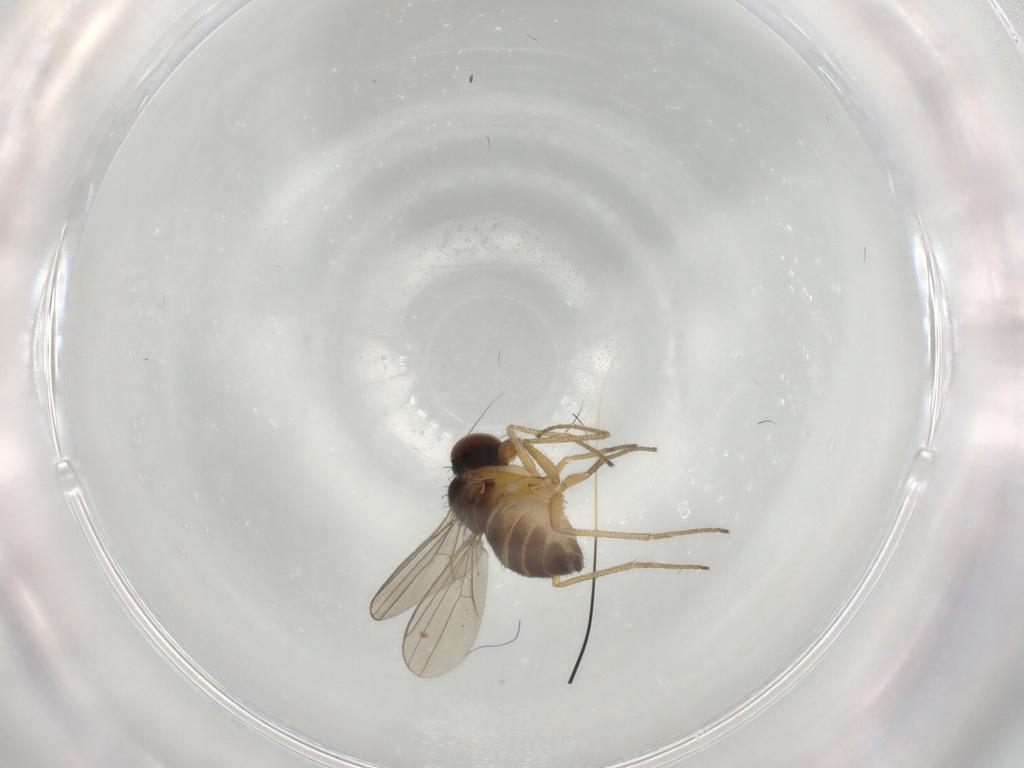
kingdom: Animalia
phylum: Arthropoda
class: Insecta
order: Diptera
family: Dolichopodidae
